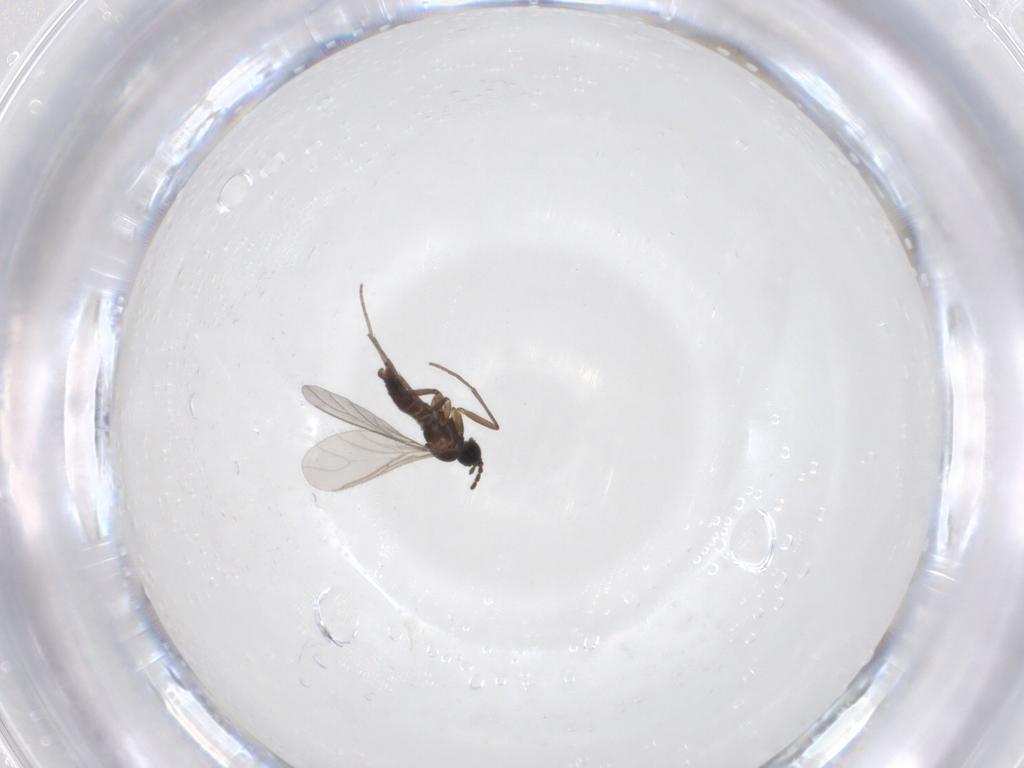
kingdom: Animalia
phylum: Arthropoda
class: Insecta
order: Diptera
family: Sciaridae
